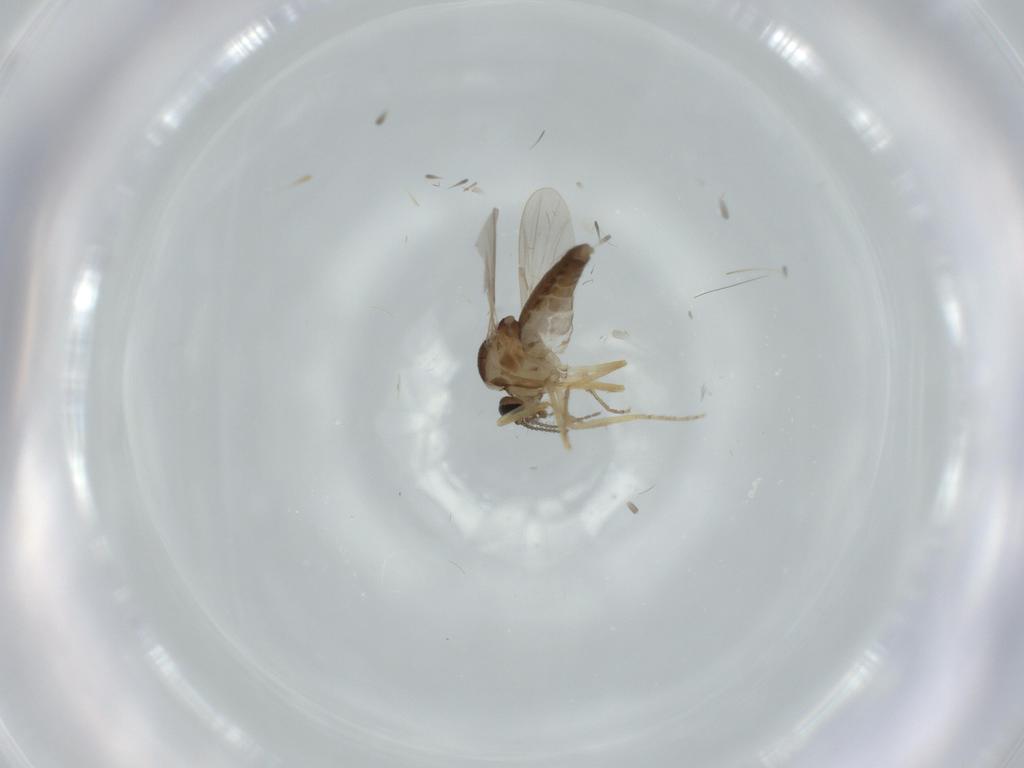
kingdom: Animalia
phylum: Arthropoda
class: Insecta
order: Diptera
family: Ceratopogonidae
